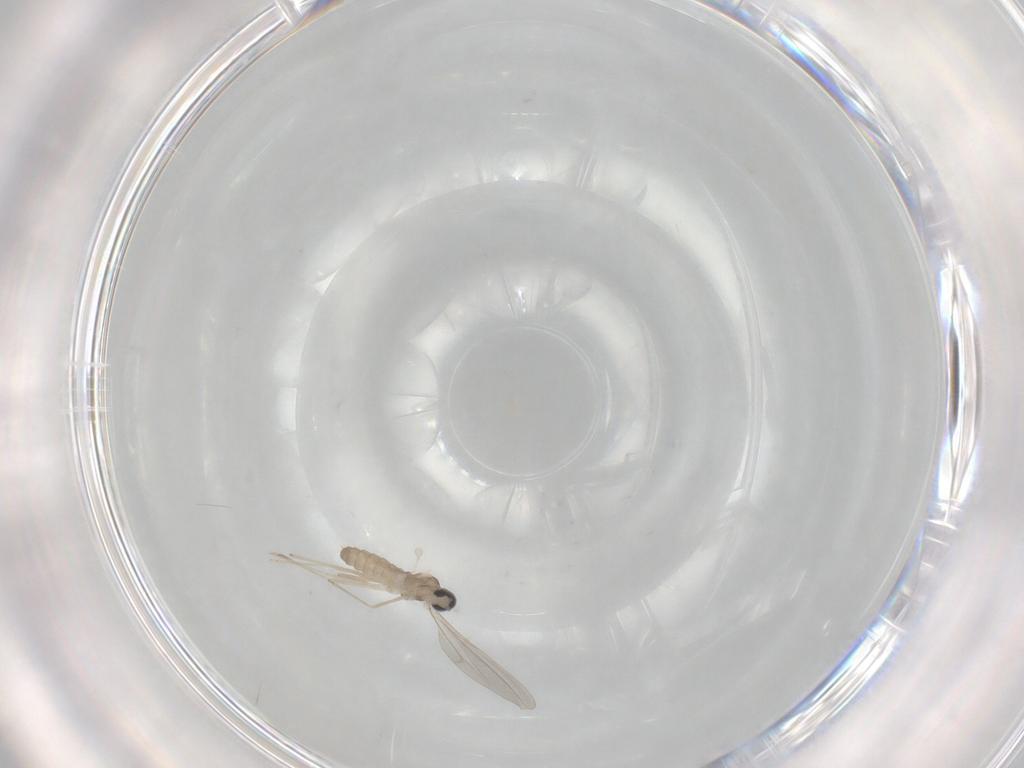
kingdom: Animalia
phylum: Arthropoda
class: Insecta
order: Diptera
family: Cecidomyiidae
